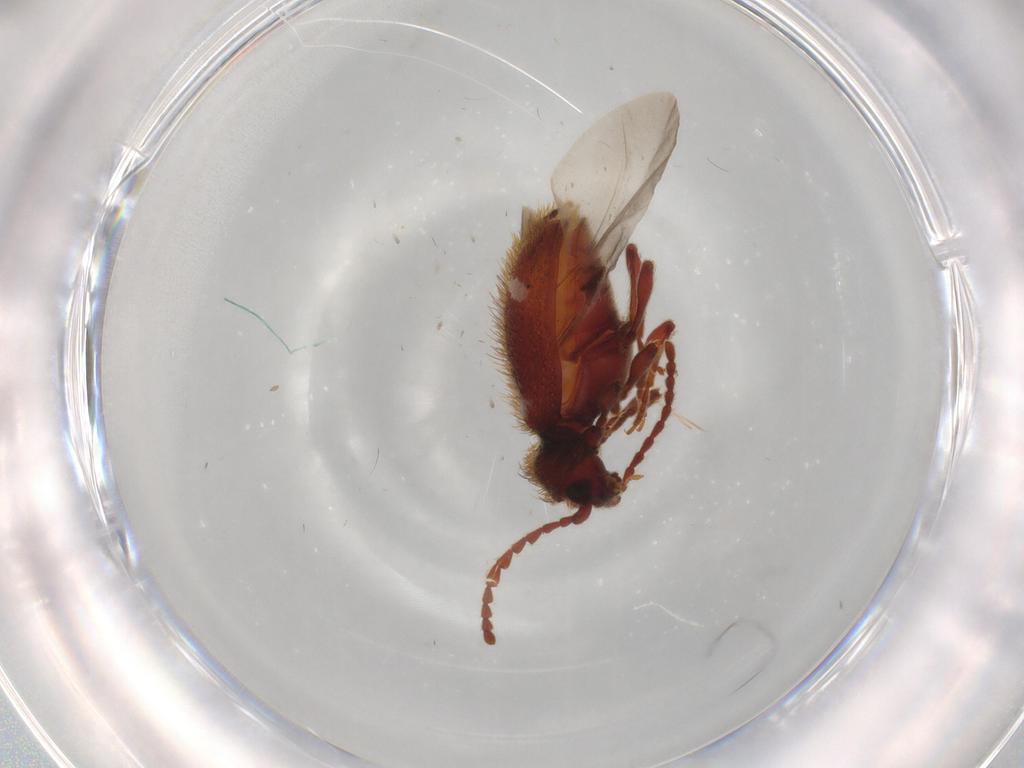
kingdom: Animalia
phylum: Arthropoda
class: Insecta
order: Coleoptera
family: Ptinidae
